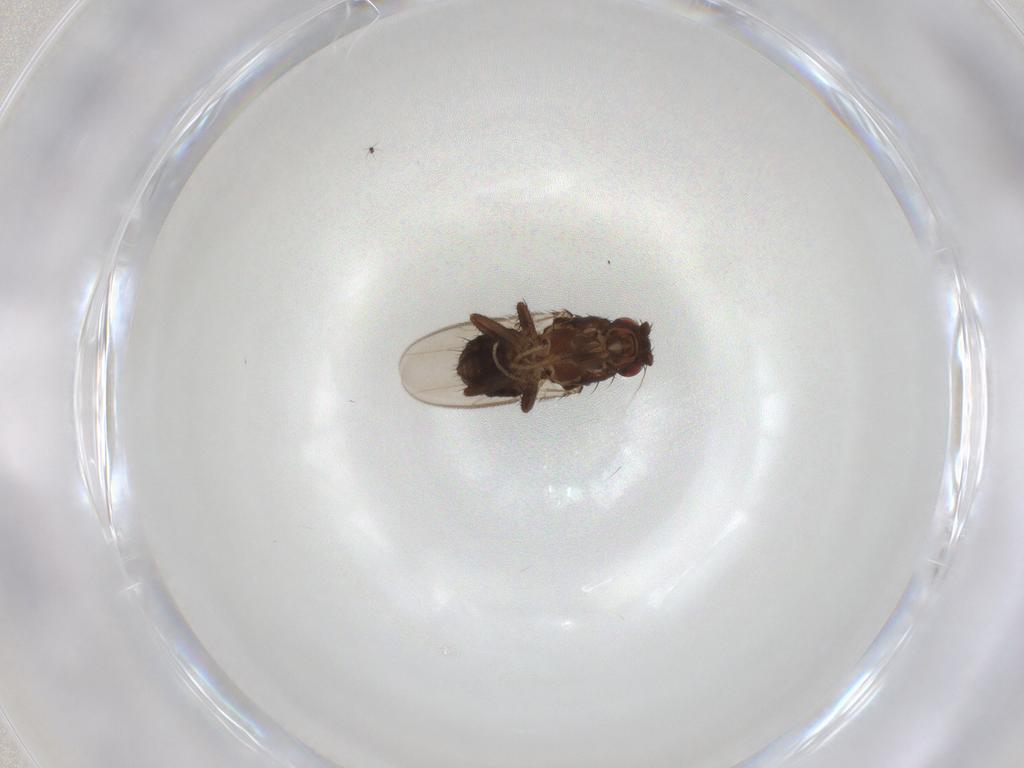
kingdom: Animalia
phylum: Arthropoda
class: Insecta
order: Diptera
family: Sphaeroceridae
